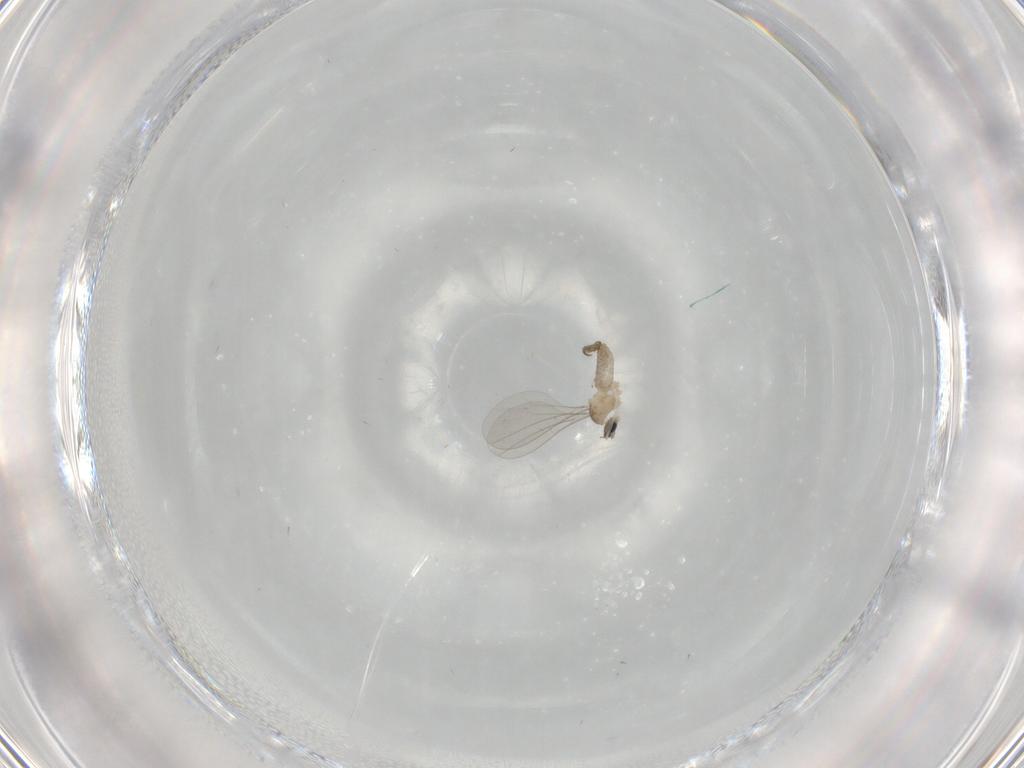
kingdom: Animalia
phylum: Arthropoda
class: Insecta
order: Diptera
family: Cecidomyiidae
